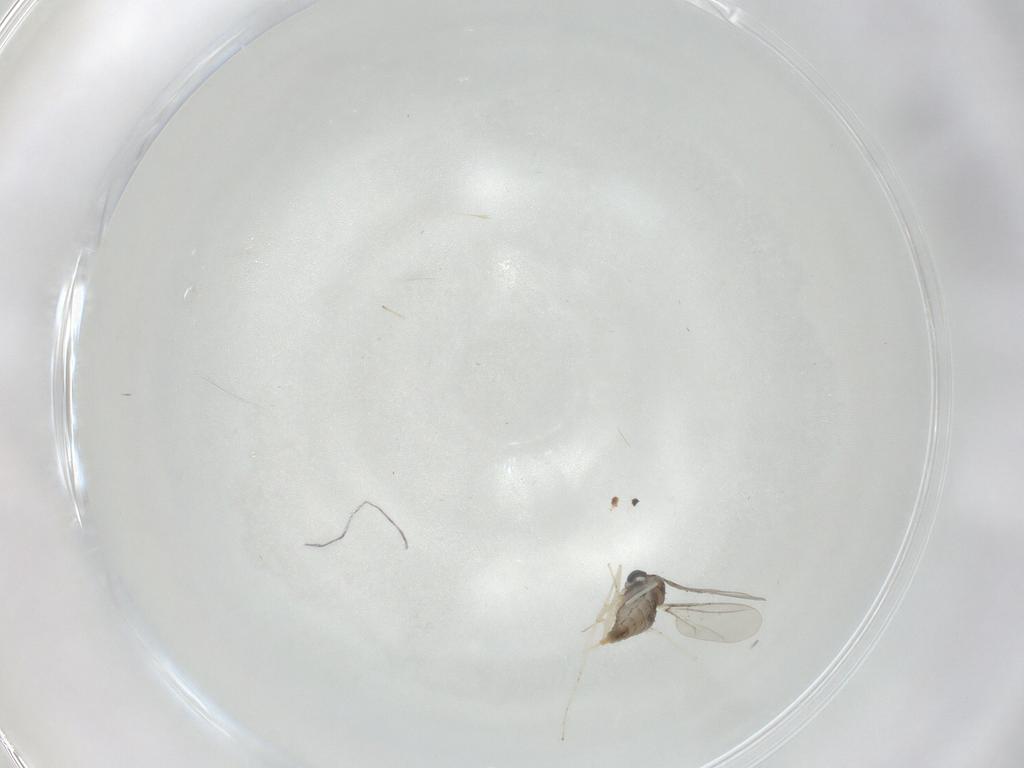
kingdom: Animalia
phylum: Arthropoda
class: Insecta
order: Diptera
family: Cecidomyiidae
